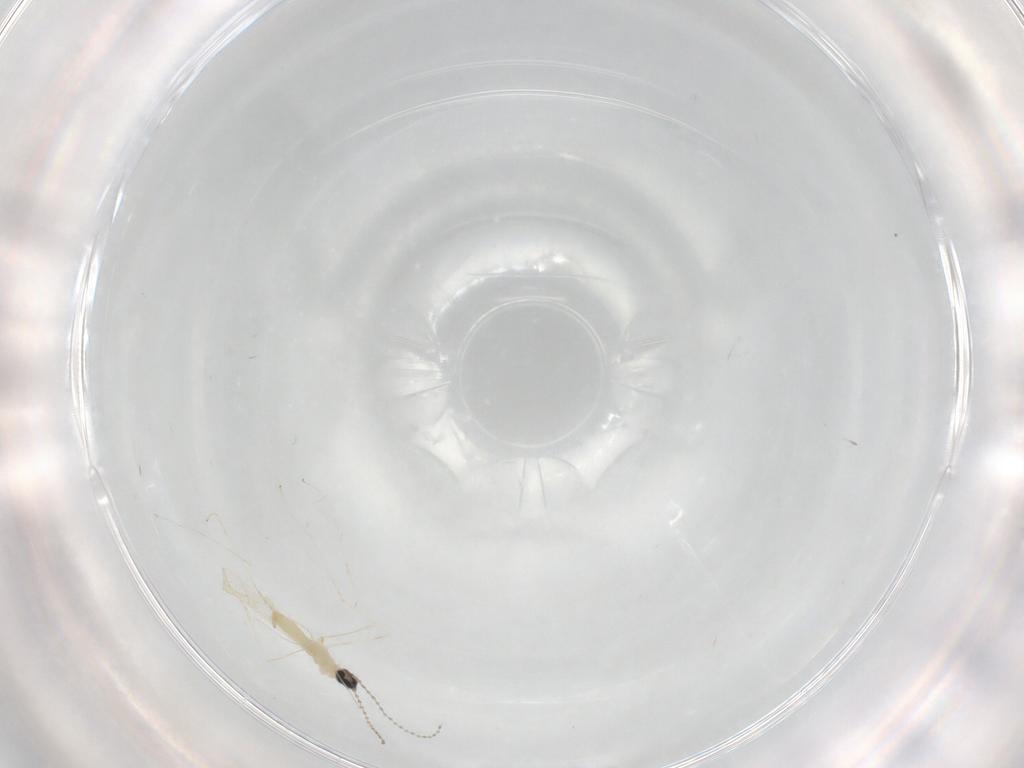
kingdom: Animalia
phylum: Arthropoda
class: Insecta
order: Diptera
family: Cecidomyiidae
